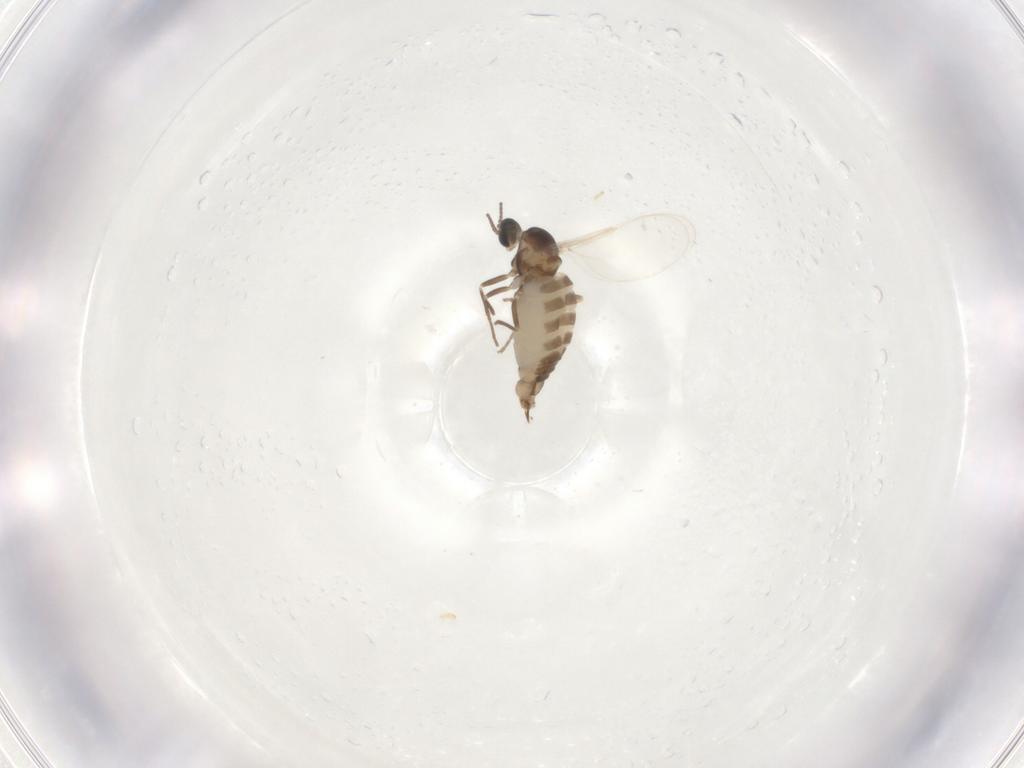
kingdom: Animalia
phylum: Arthropoda
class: Insecta
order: Diptera
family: Cecidomyiidae
